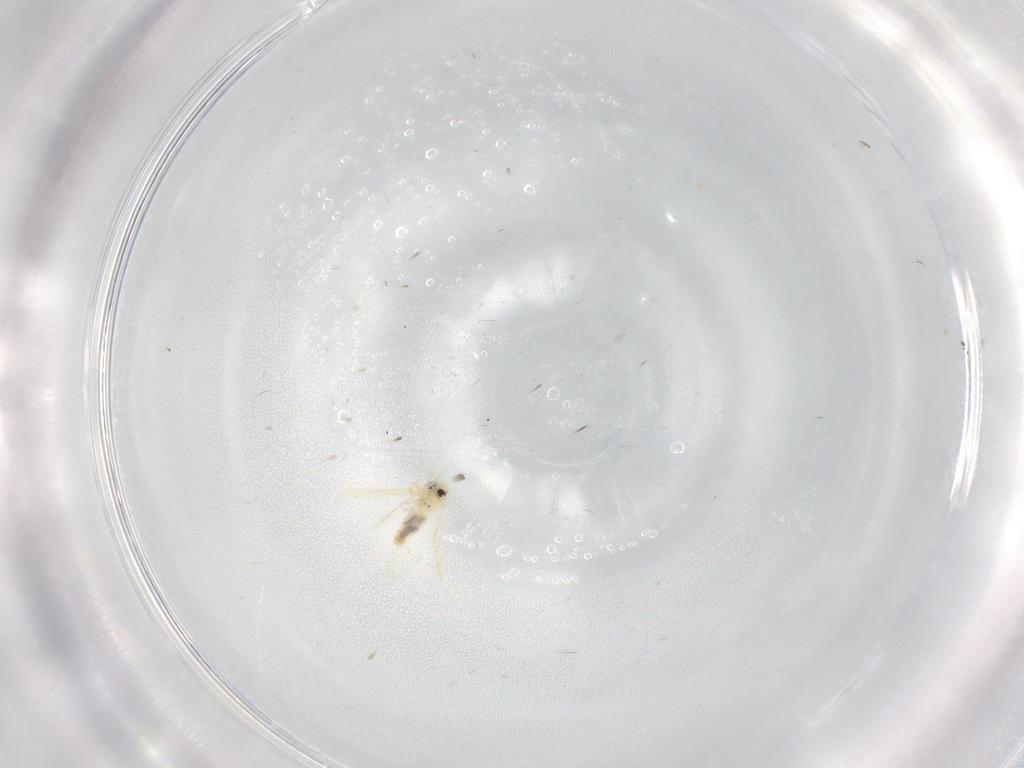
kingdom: Animalia
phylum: Arthropoda
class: Insecta
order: Hemiptera
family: Aleyrodidae
